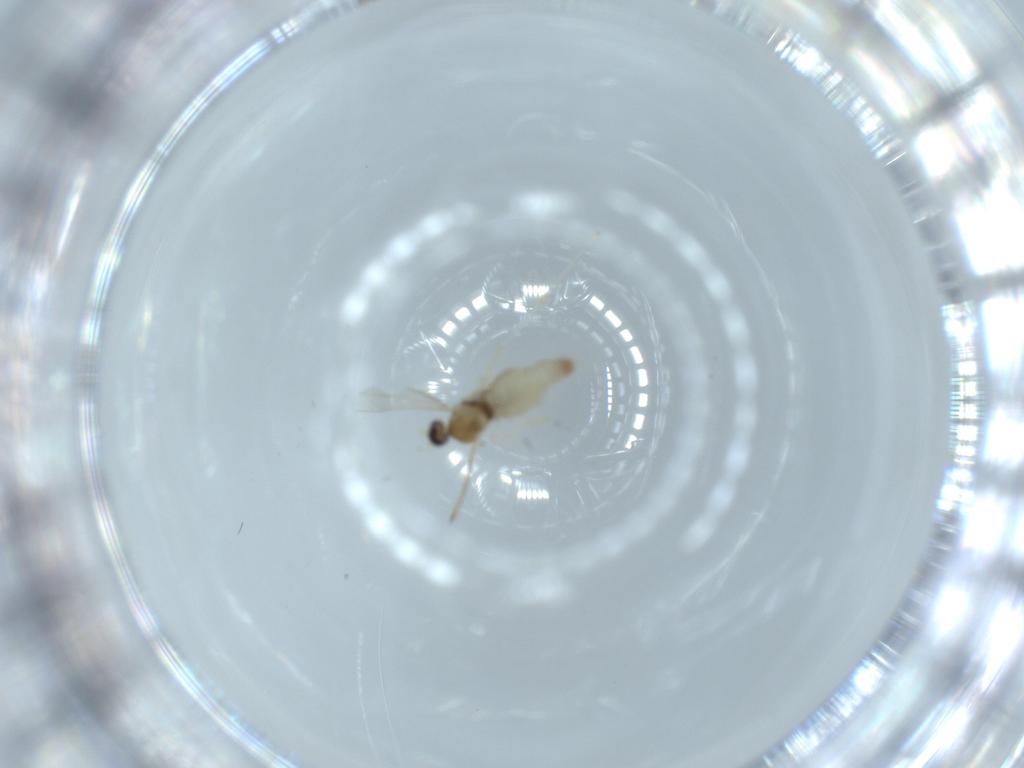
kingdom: Animalia
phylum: Arthropoda
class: Insecta
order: Diptera
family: Cecidomyiidae
